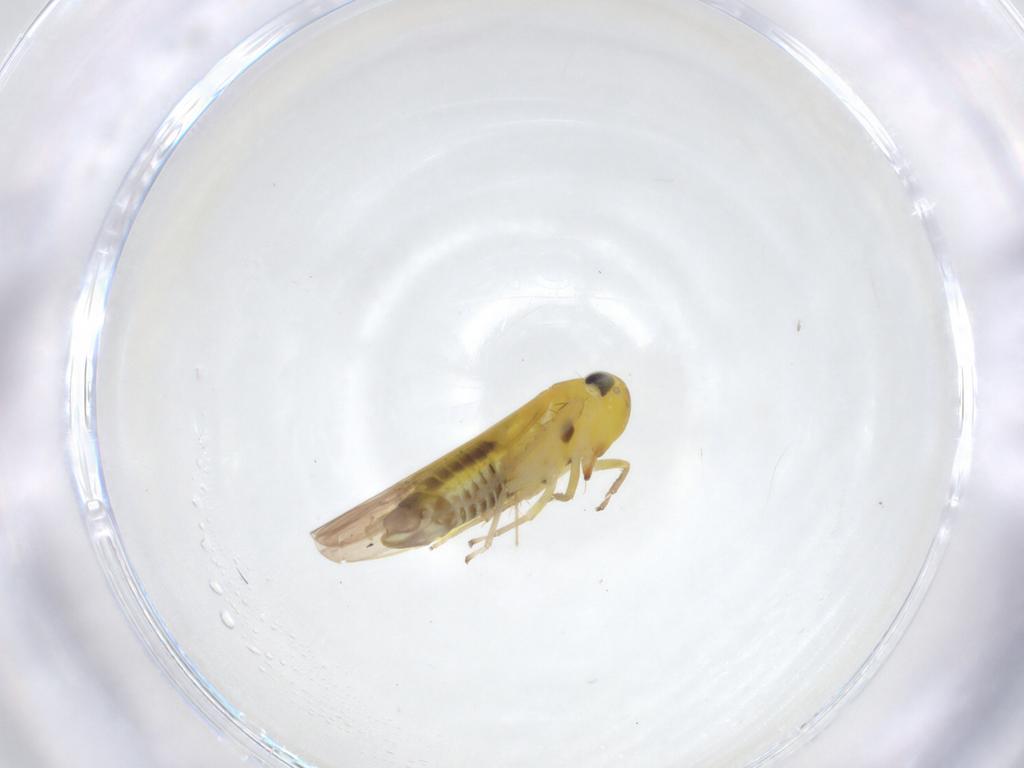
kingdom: Animalia
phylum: Arthropoda
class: Insecta
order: Hemiptera
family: Cicadellidae
